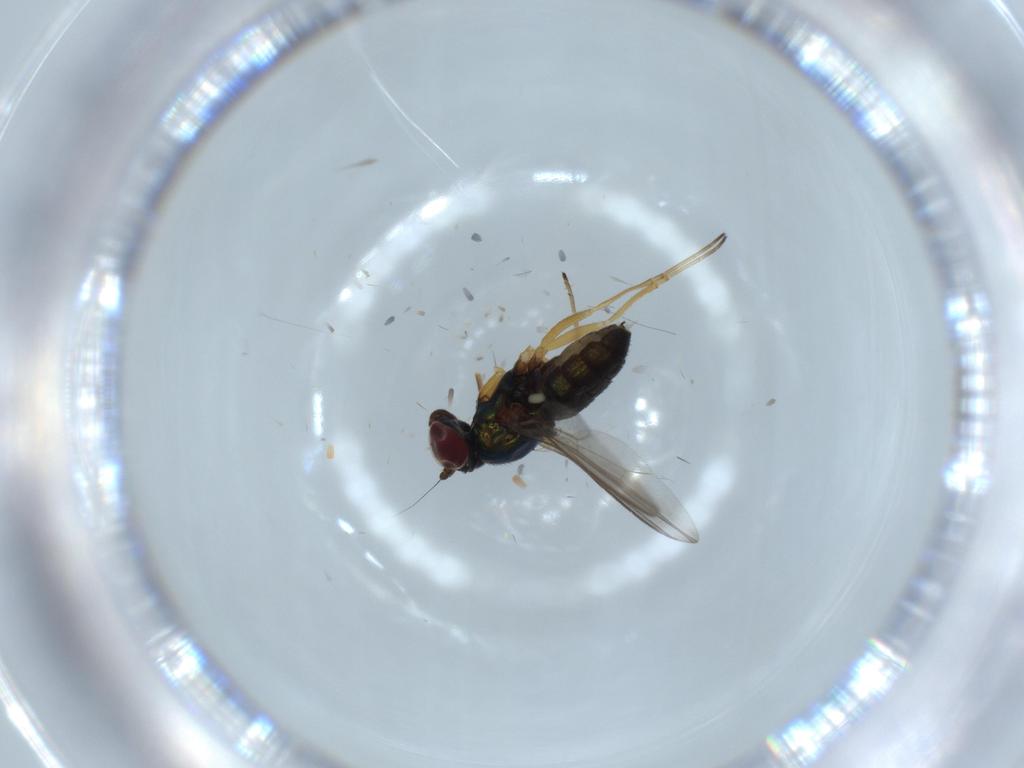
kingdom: Animalia
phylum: Arthropoda
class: Insecta
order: Diptera
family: Dolichopodidae
